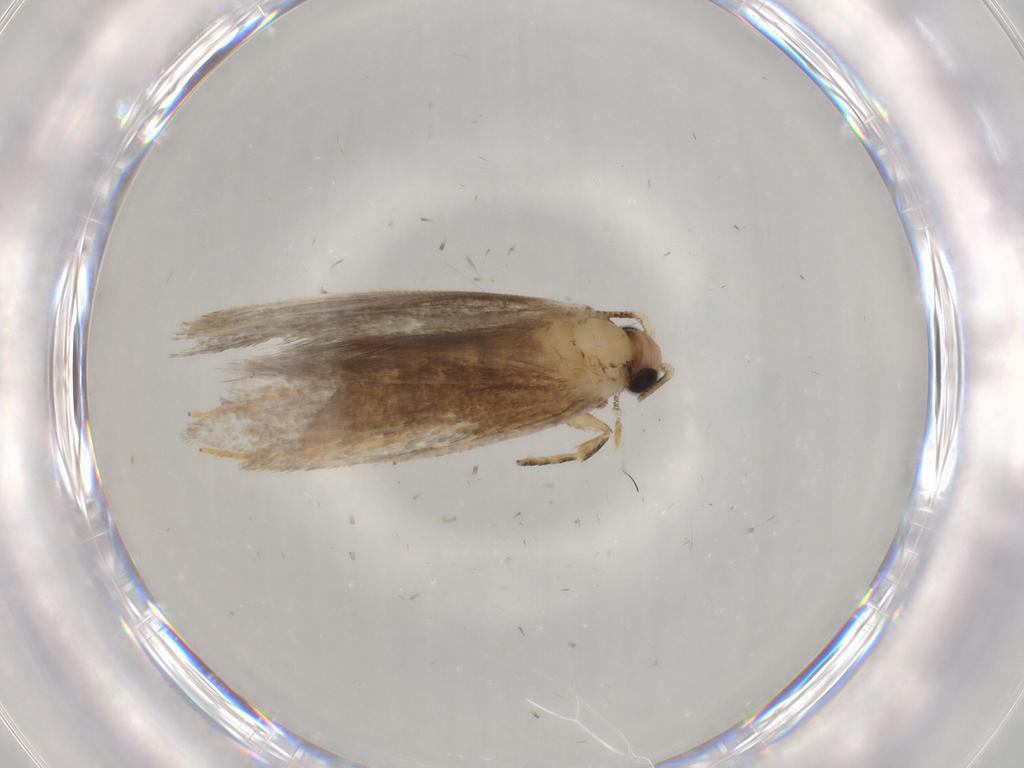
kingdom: Animalia
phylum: Arthropoda
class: Insecta
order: Lepidoptera
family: Tineidae
